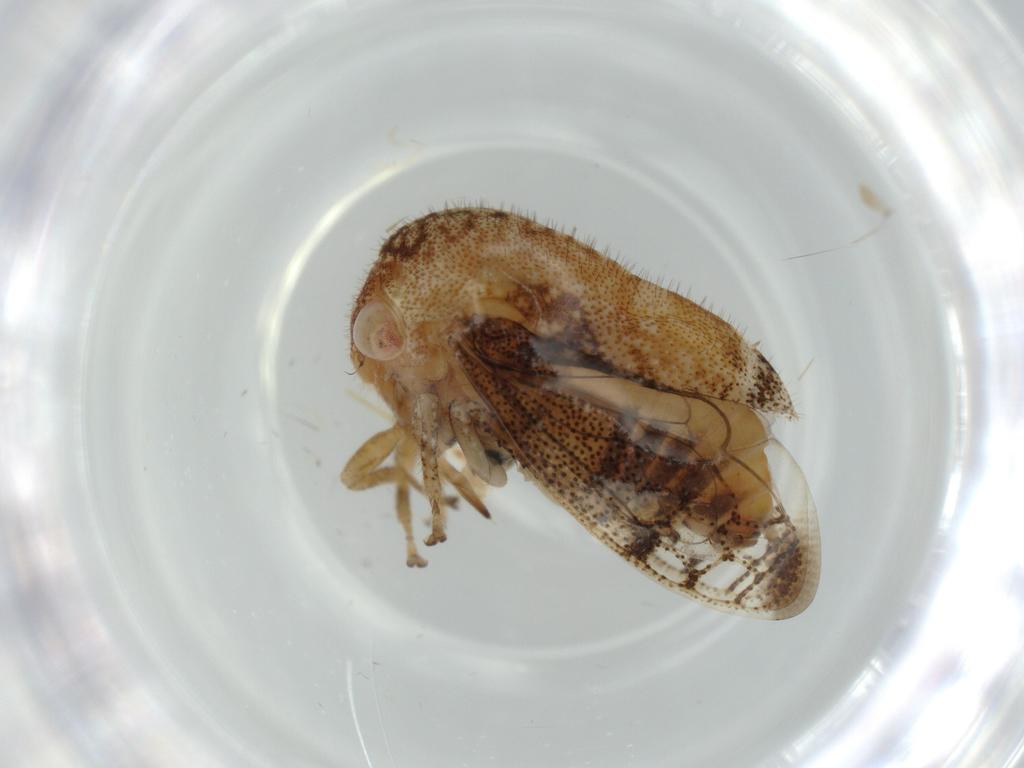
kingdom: Animalia
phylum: Arthropoda
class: Insecta
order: Hemiptera
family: Membracidae
